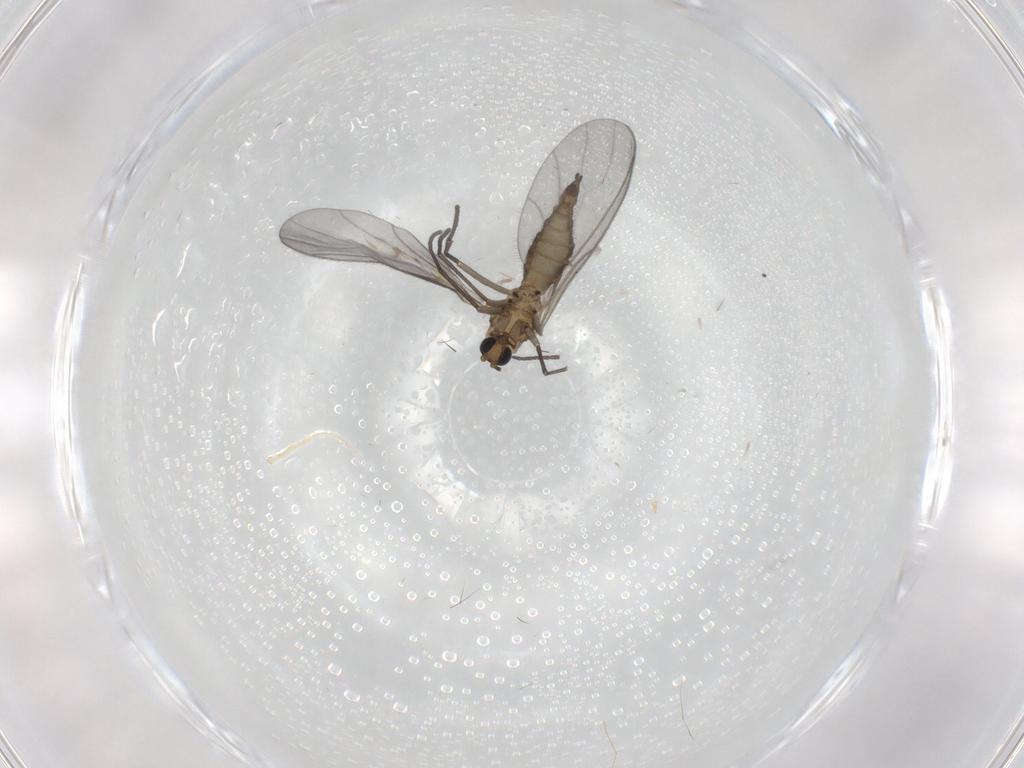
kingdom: Animalia
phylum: Arthropoda
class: Insecta
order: Diptera
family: Sciaridae
